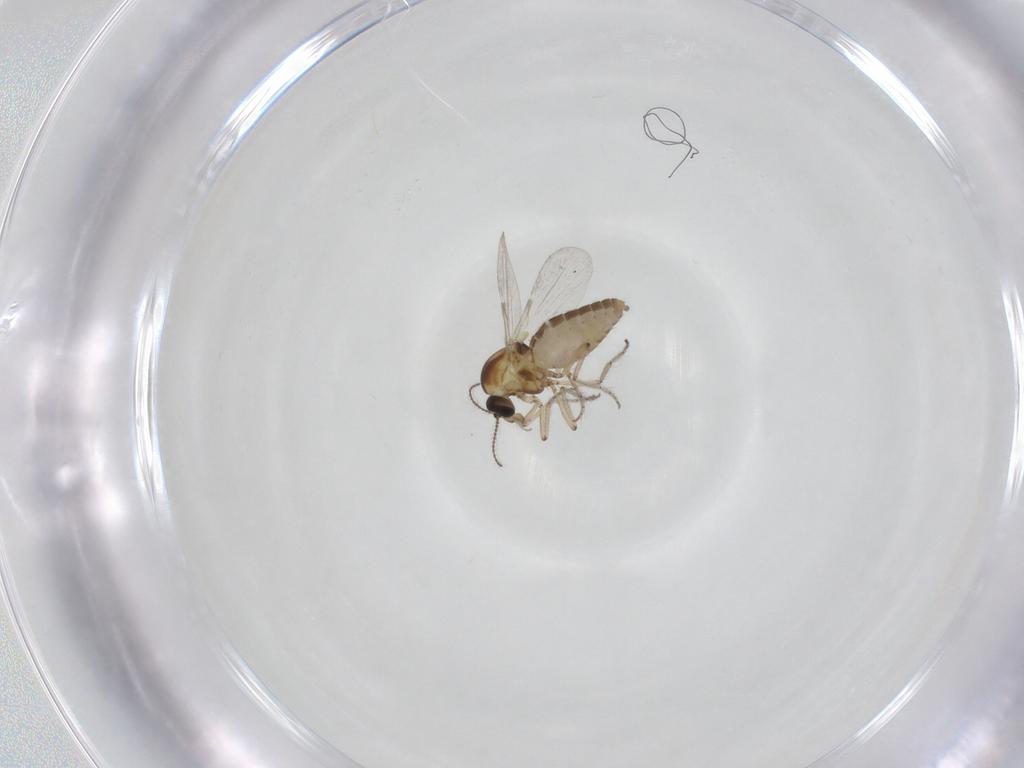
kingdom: Animalia
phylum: Arthropoda
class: Insecta
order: Diptera
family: Ceratopogonidae
